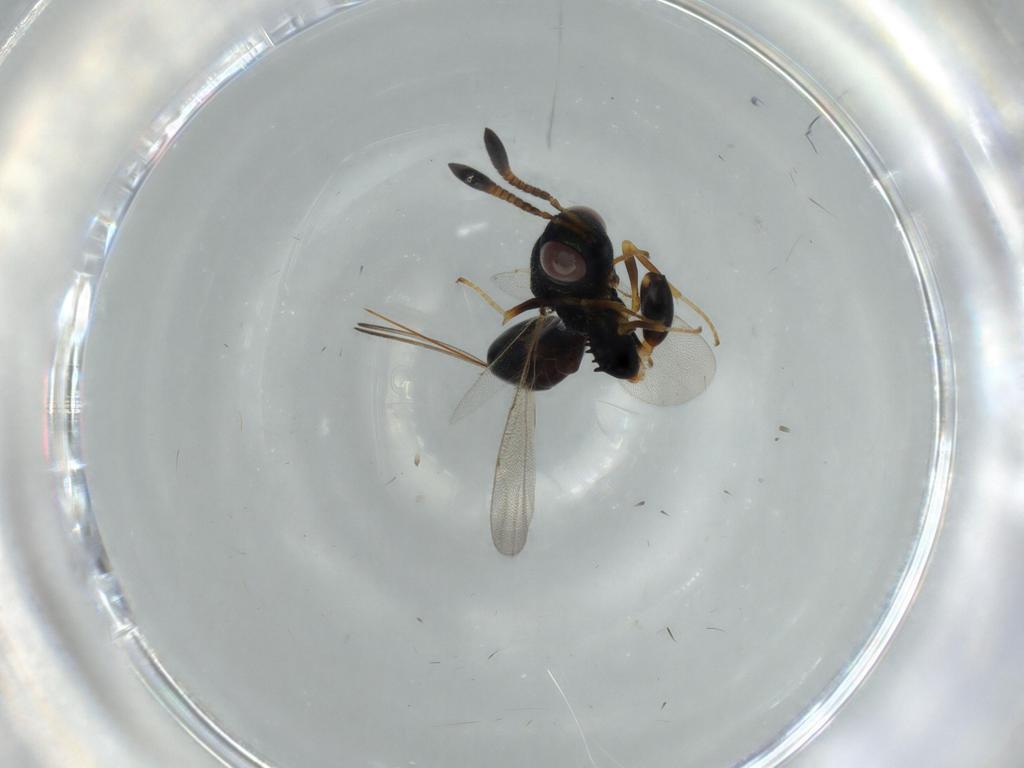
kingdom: Animalia
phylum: Arthropoda
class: Insecta
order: Hymenoptera
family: Torymidae
